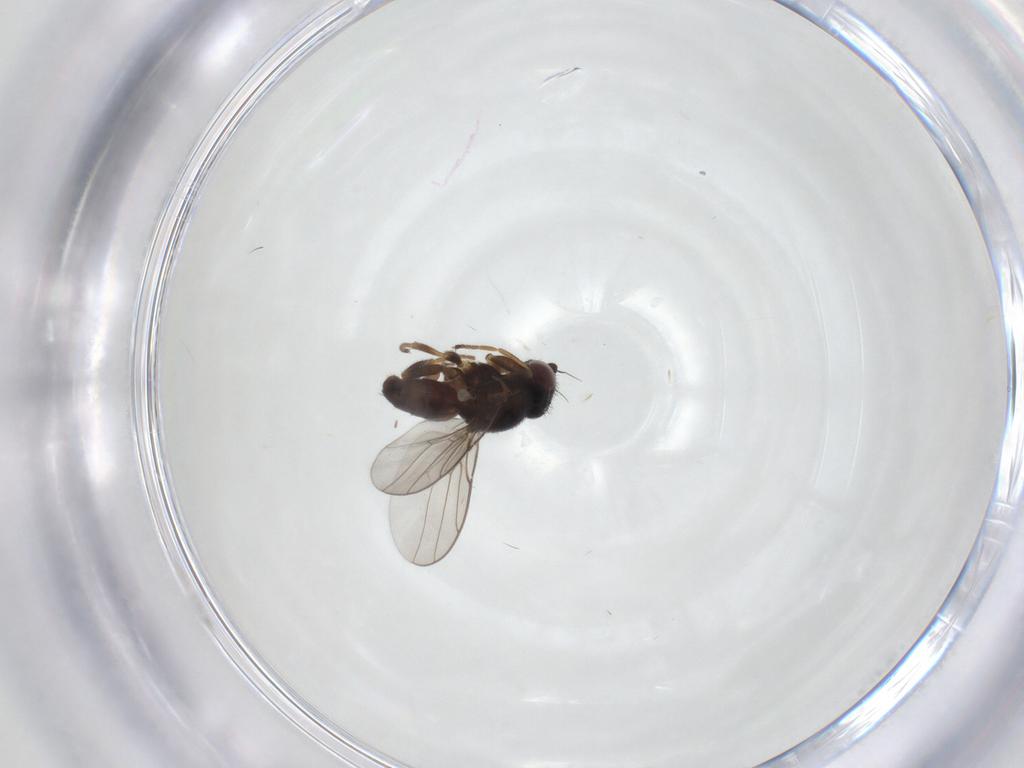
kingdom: Animalia
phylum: Arthropoda
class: Insecta
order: Diptera
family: Chloropidae
